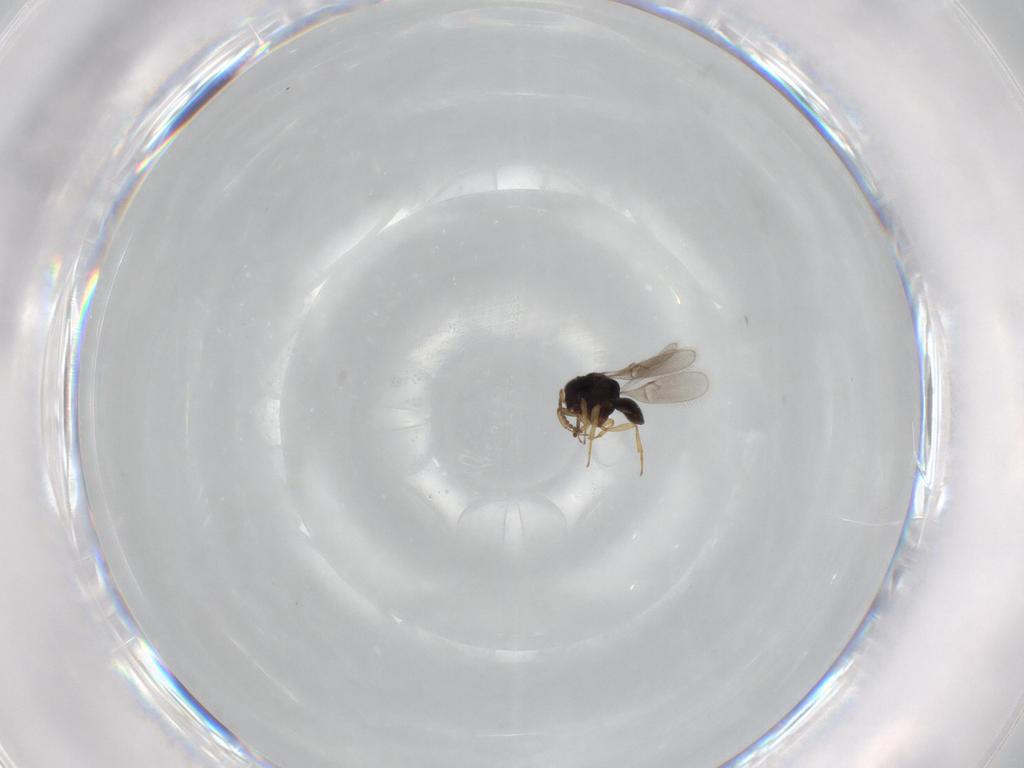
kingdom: Animalia
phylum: Arthropoda
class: Insecta
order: Hymenoptera
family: Scelionidae
